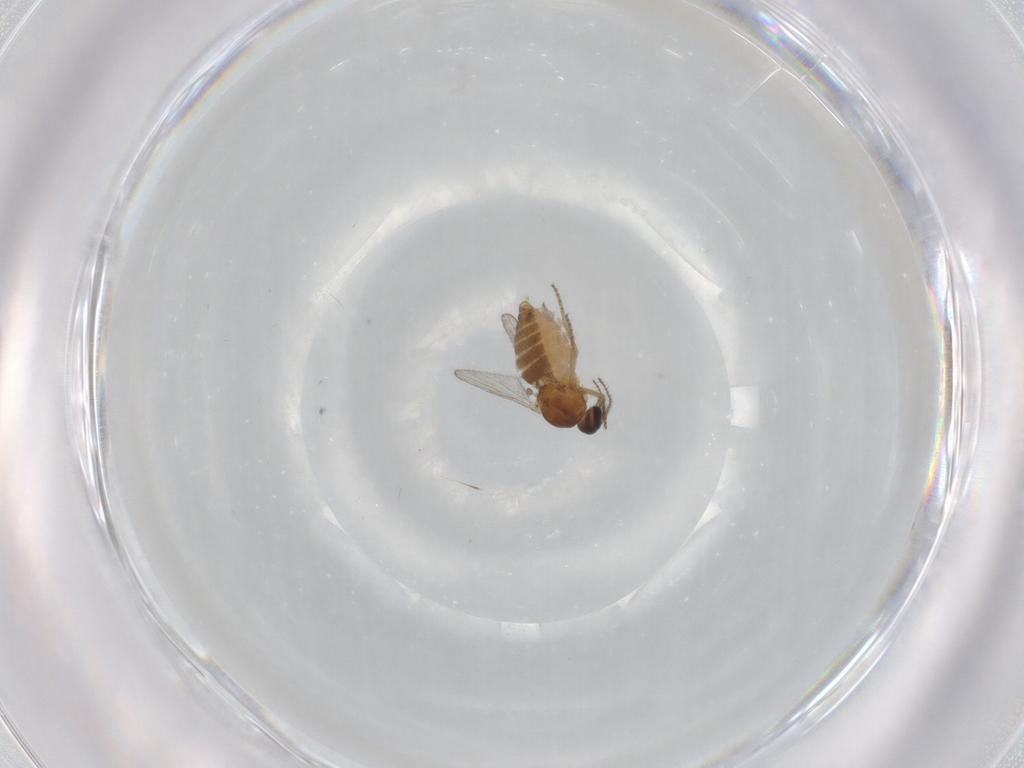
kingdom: Animalia
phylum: Arthropoda
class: Insecta
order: Diptera
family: Ceratopogonidae
